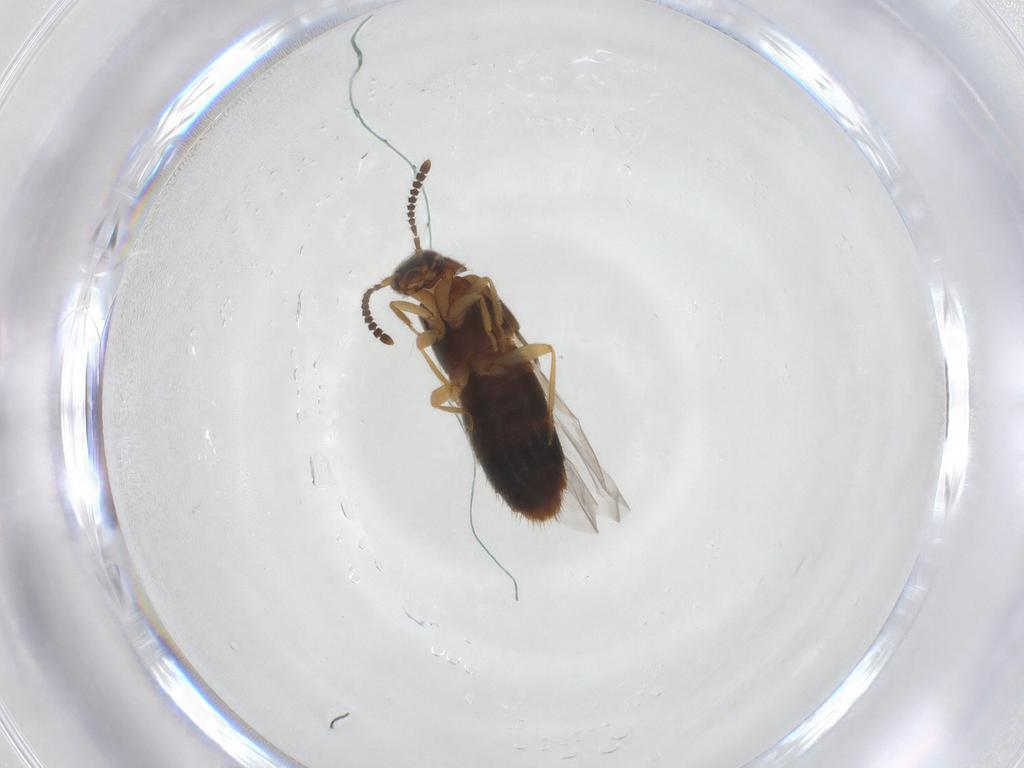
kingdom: Animalia
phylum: Arthropoda
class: Insecta
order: Coleoptera
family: Staphylinidae
